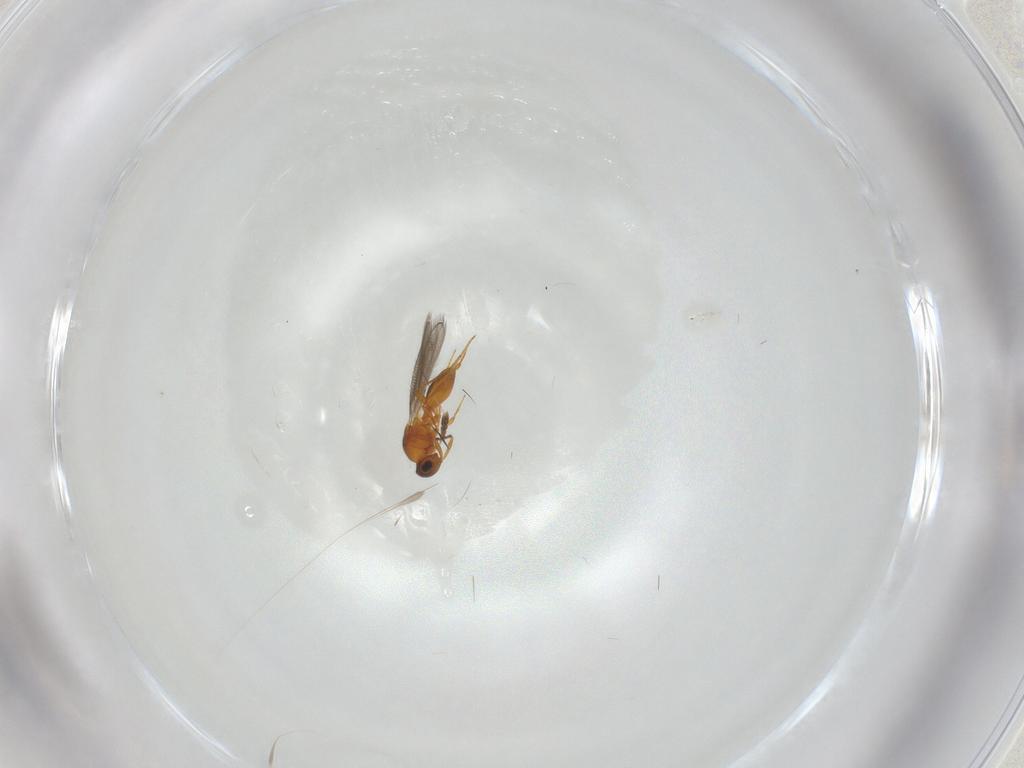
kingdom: Animalia
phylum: Arthropoda
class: Insecta
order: Hymenoptera
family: Platygastridae
